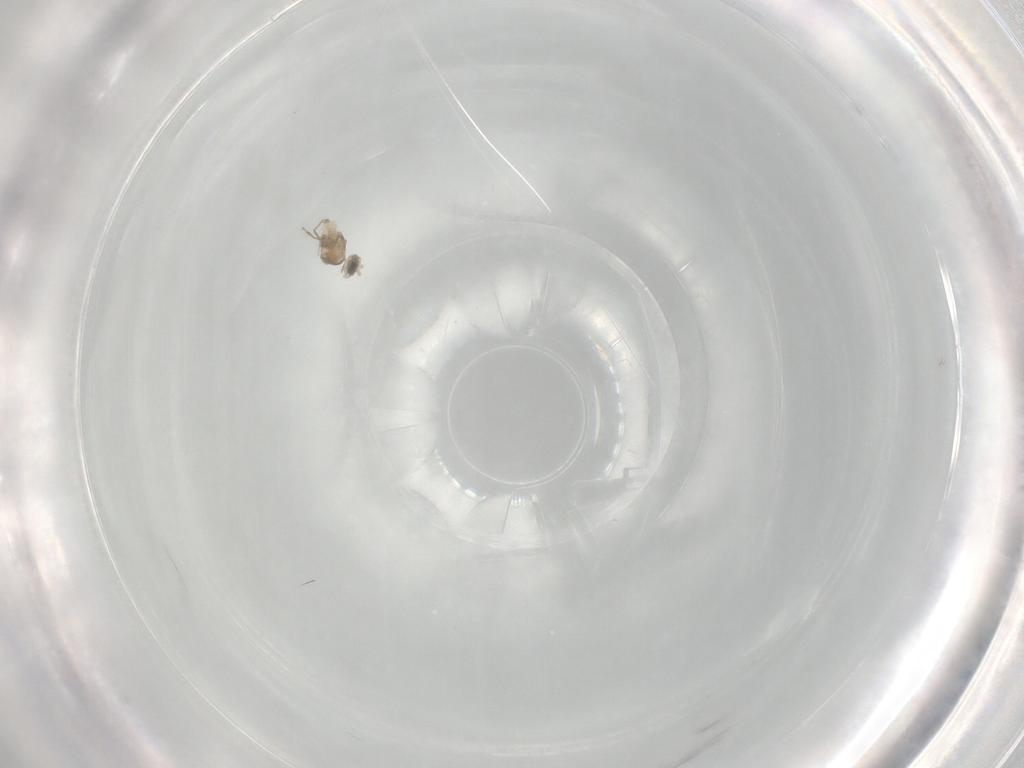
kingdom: Animalia
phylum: Arthropoda
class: Insecta
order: Diptera
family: Cecidomyiidae
